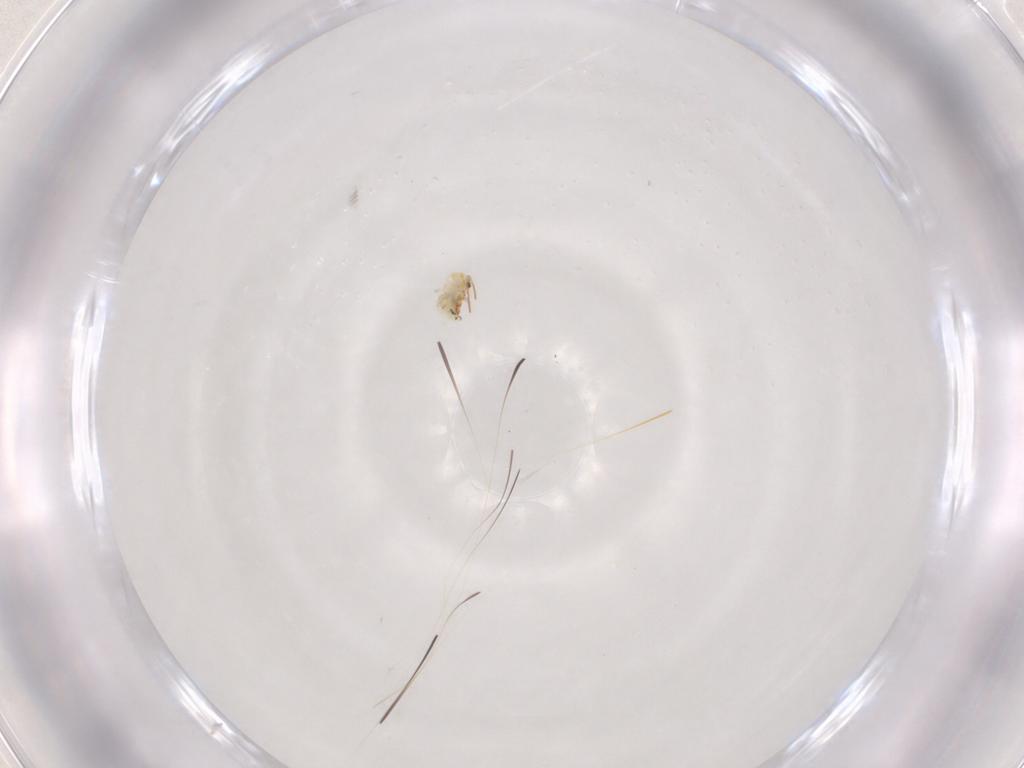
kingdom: Animalia
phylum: Arthropoda
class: Collembola
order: Symphypleona
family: Bourletiellidae
